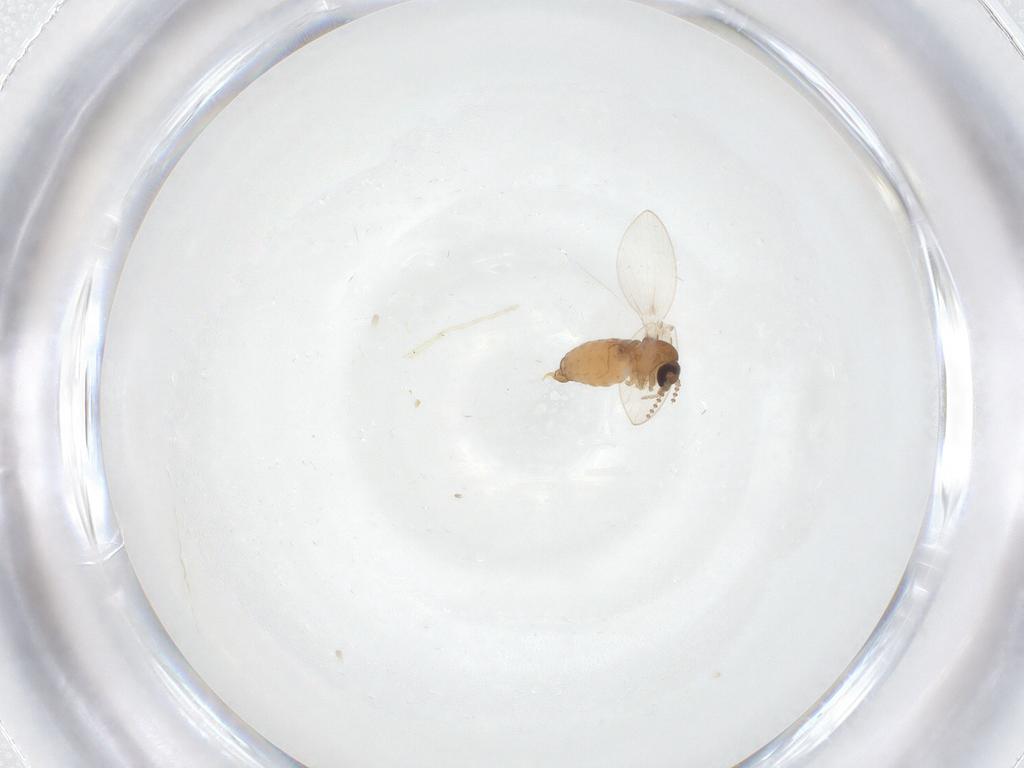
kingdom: Animalia
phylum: Arthropoda
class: Insecta
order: Diptera
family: Psychodidae
